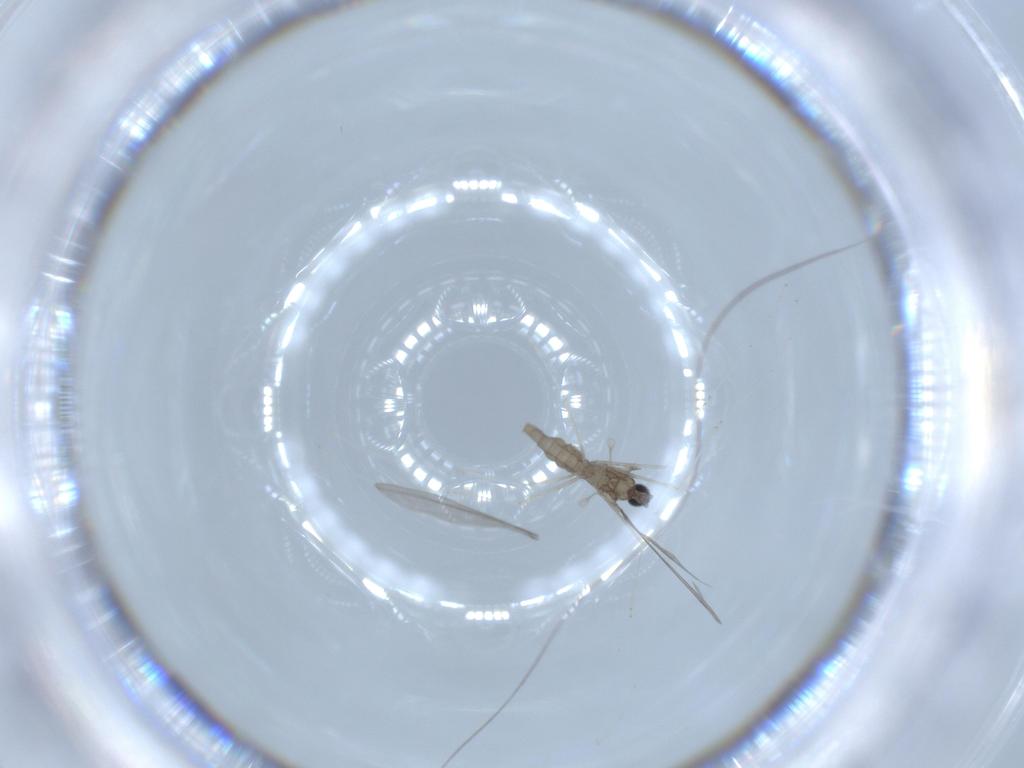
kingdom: Animalia
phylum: Arthropoda
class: Insecta
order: Diptera
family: Cecidomyiidae
